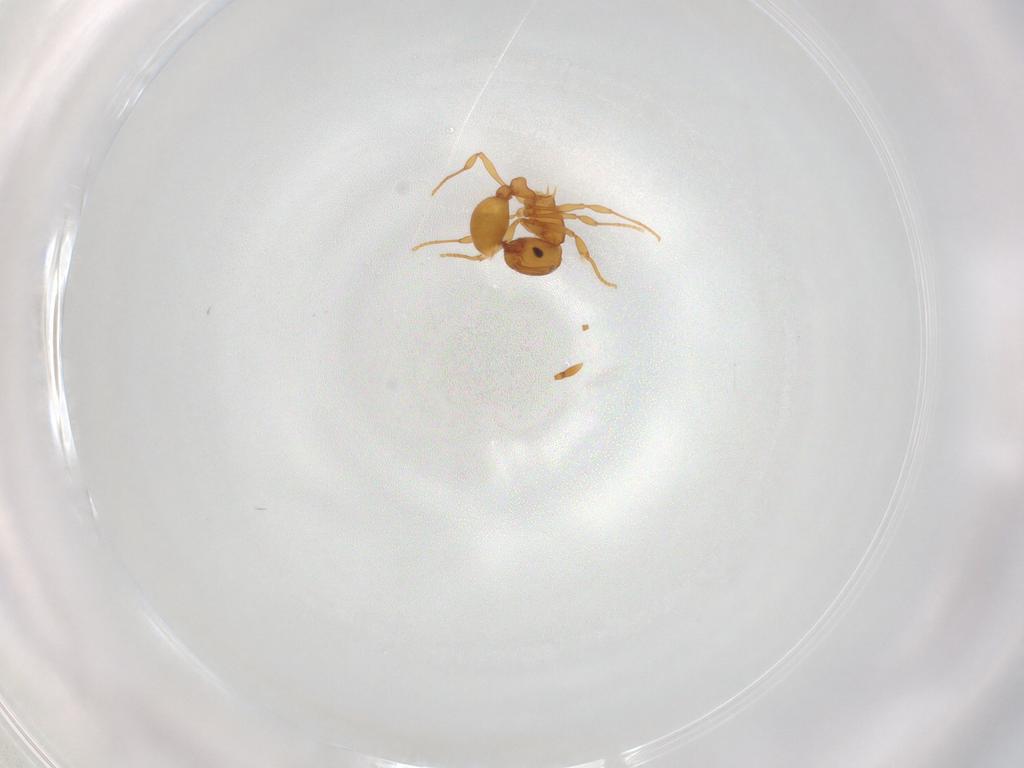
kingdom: Animalia
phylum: Arthropoda
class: Insecta
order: Hymenoptera
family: Formicidae
